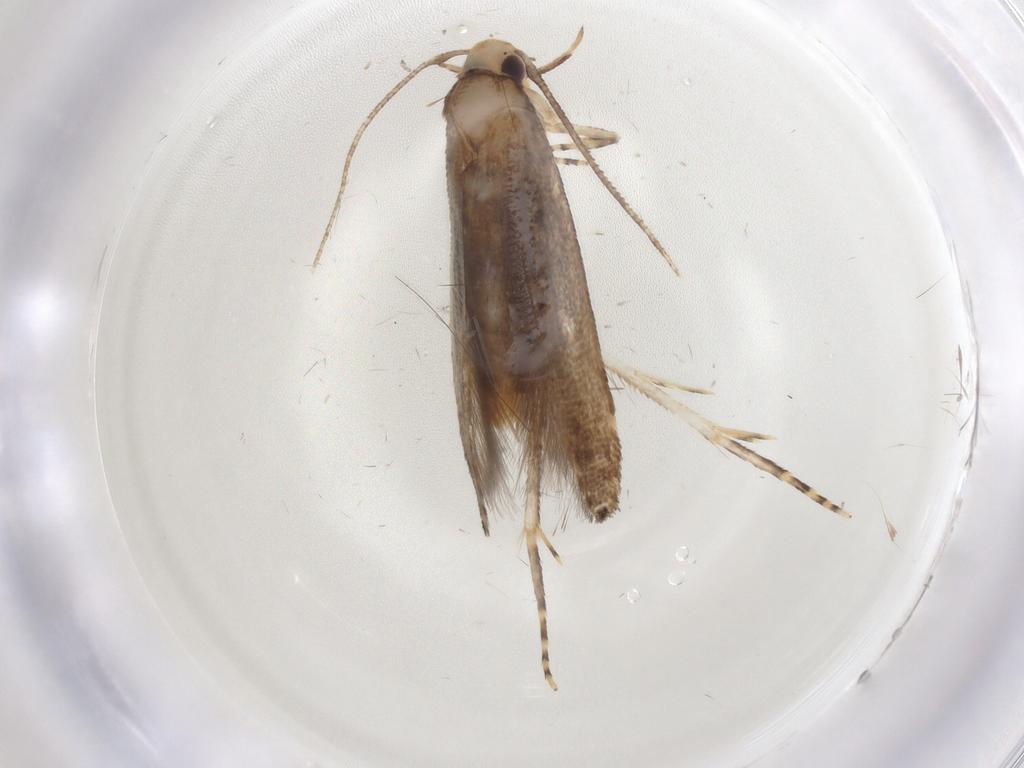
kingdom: Animalia
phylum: Arthropoda
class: Insecta
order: Lepidoptera
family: Cosmopterigidae
